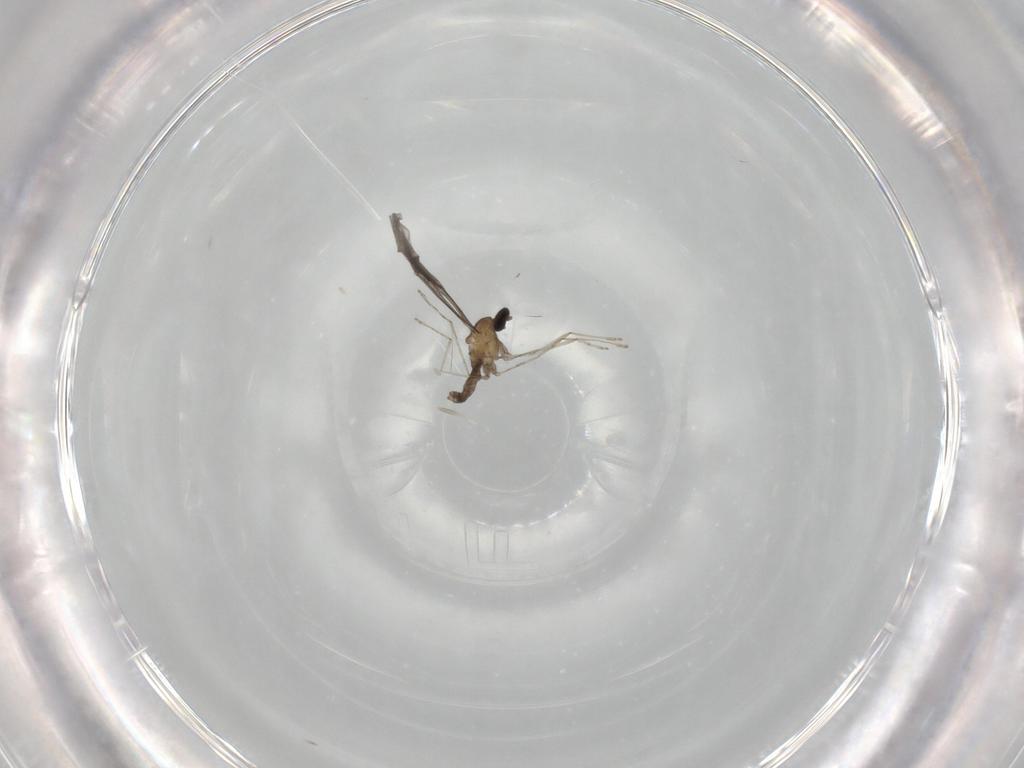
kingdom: Animalia
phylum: Arthropoda
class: Insecta
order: Diptera
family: Cecidomyiidae
